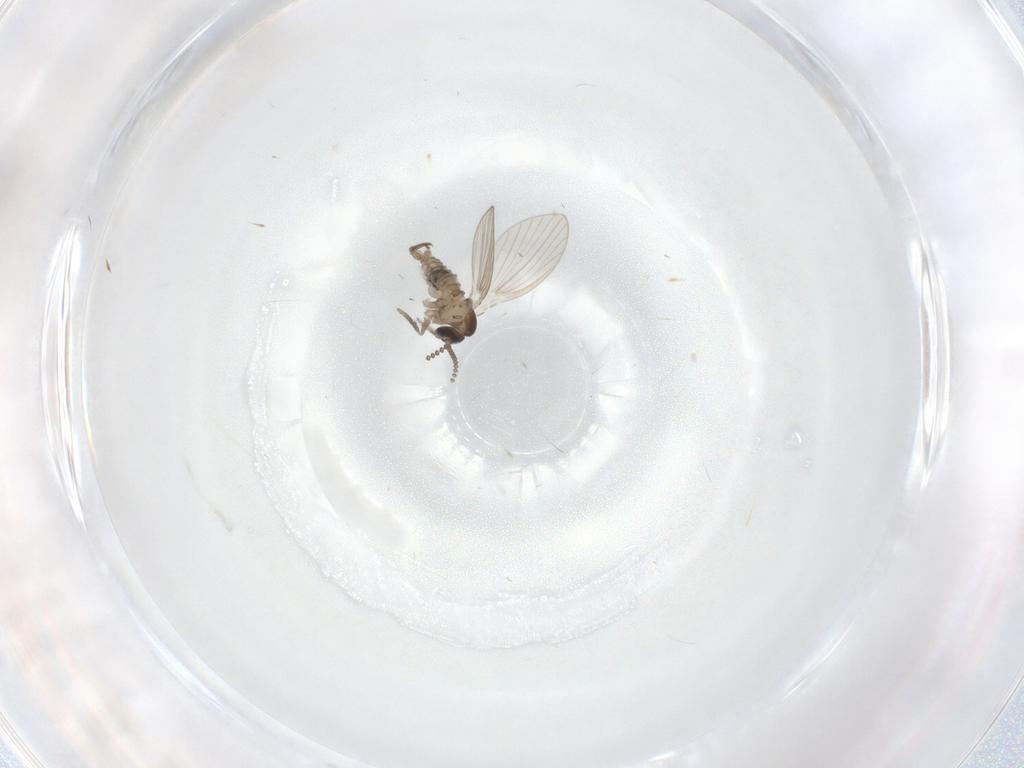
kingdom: Animalia
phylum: Arthropoda
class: Insecta
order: Diptera
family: Psychodidae
